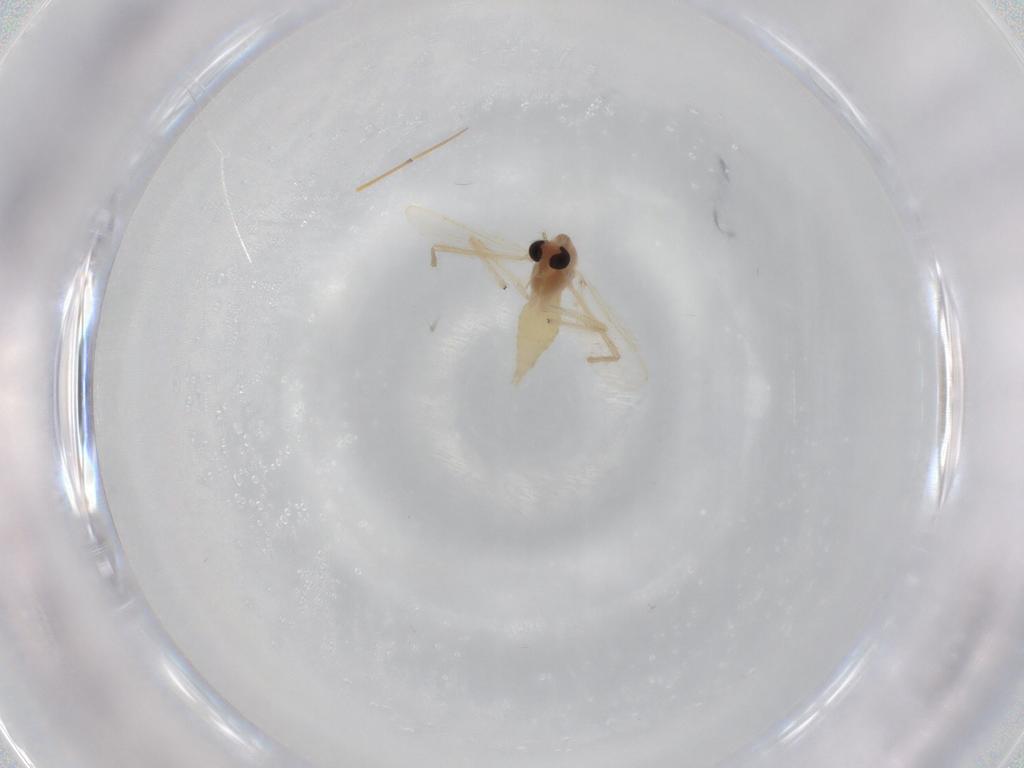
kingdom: Animalia
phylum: Arthropoda
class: Insecta
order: Diptera
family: Chironomidae
